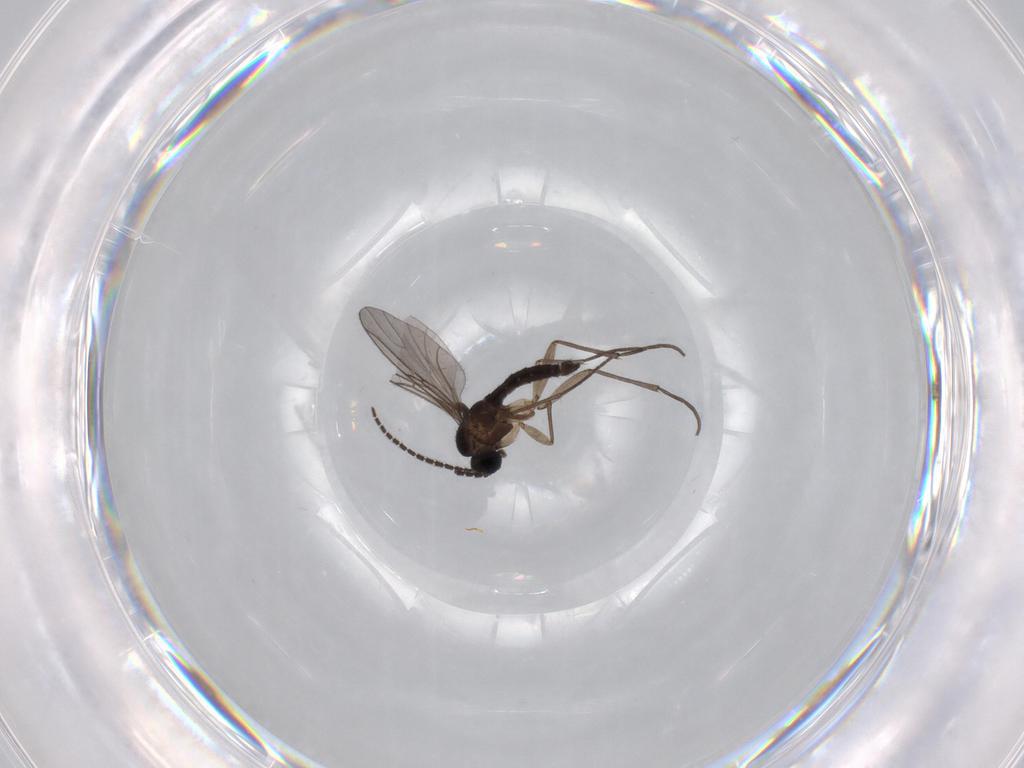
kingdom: Animalia
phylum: Arthropoda
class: Insecta
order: Diptera
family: Sciaridae
